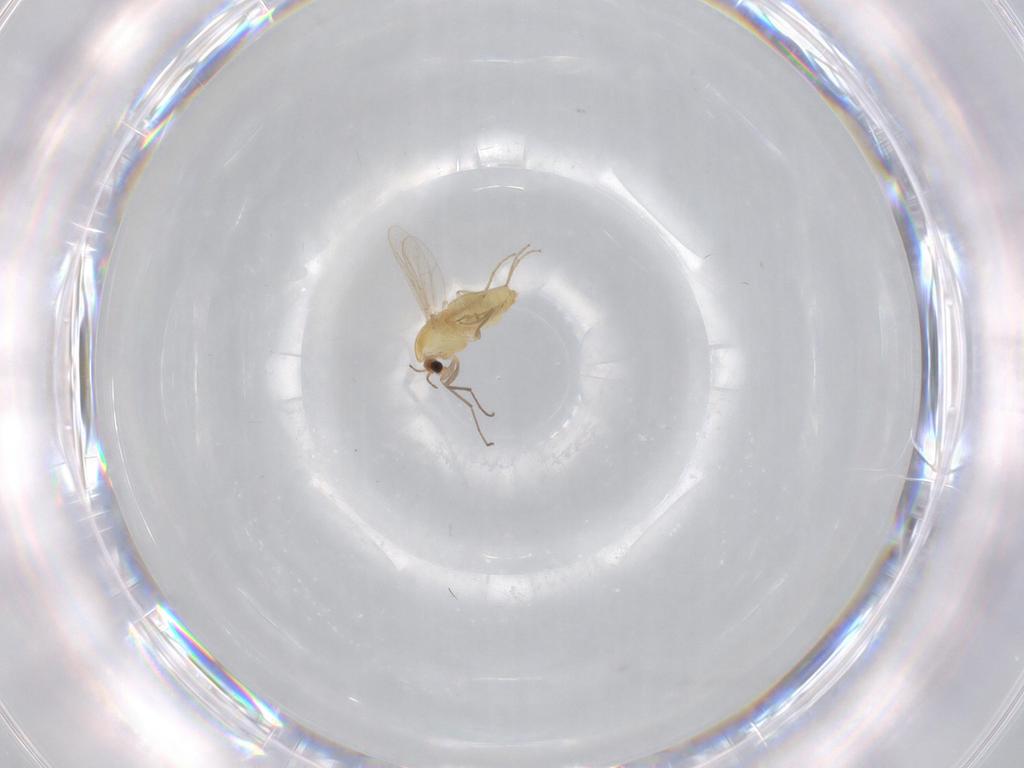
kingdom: Animalia
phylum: Arthropoda
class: Insecta
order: Diptera
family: Chironomidae
